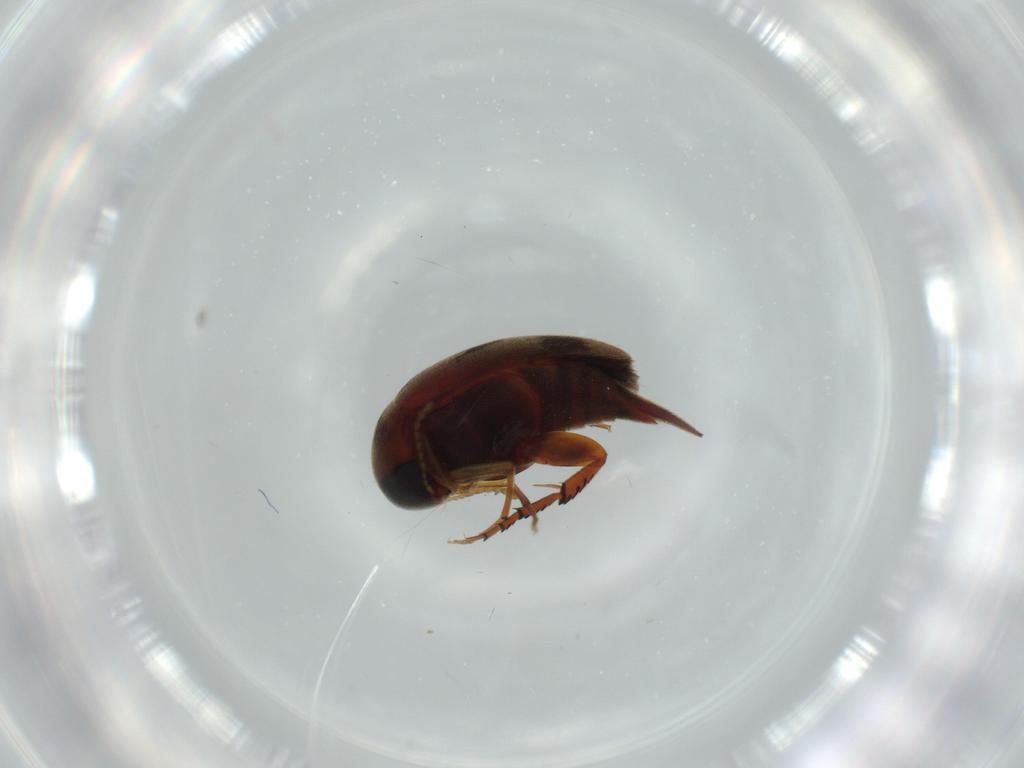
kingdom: Animalia
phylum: Arthropoda
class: Insecta
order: Coleoptera
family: Mordellidae
